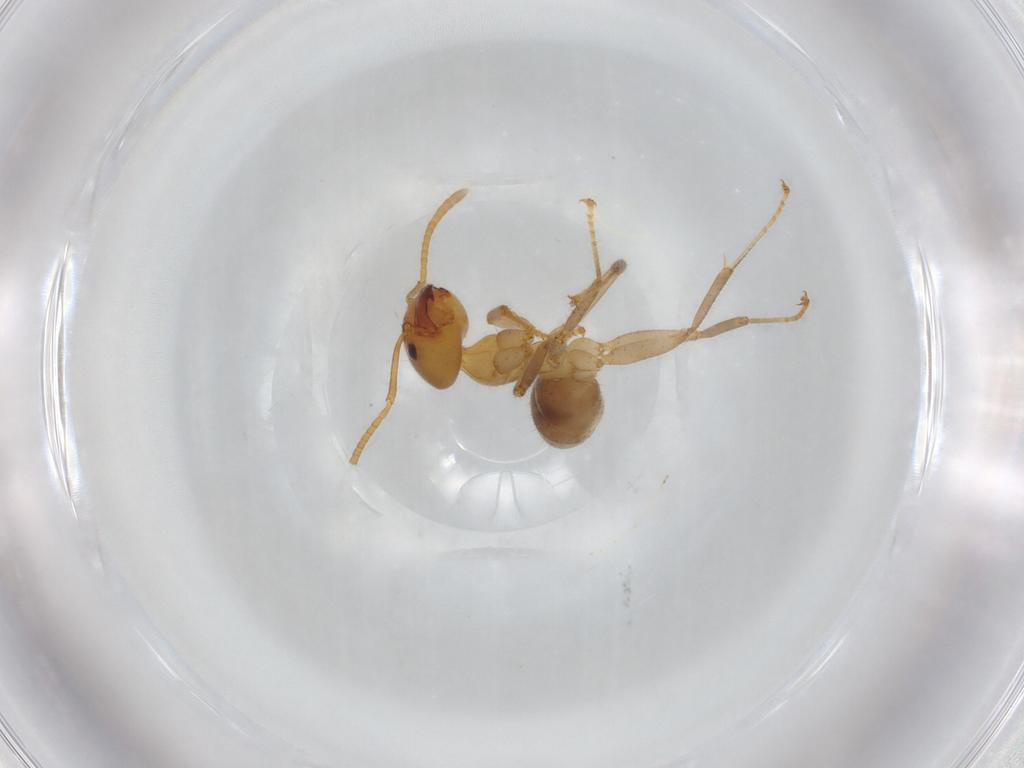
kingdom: Animalia
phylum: Arthropoda
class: Insecta
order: Hymenoptera
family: Formicidae
